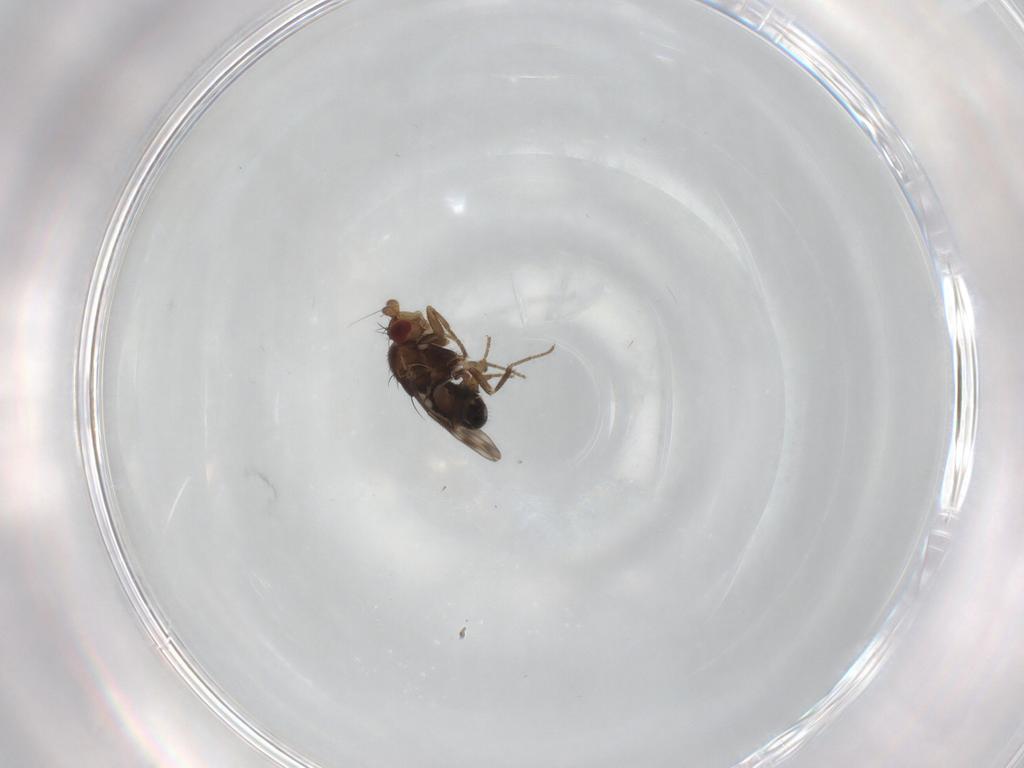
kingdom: Animalia
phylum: Arthropoda
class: Insecta
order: Diptera
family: Sphaeroceridae
